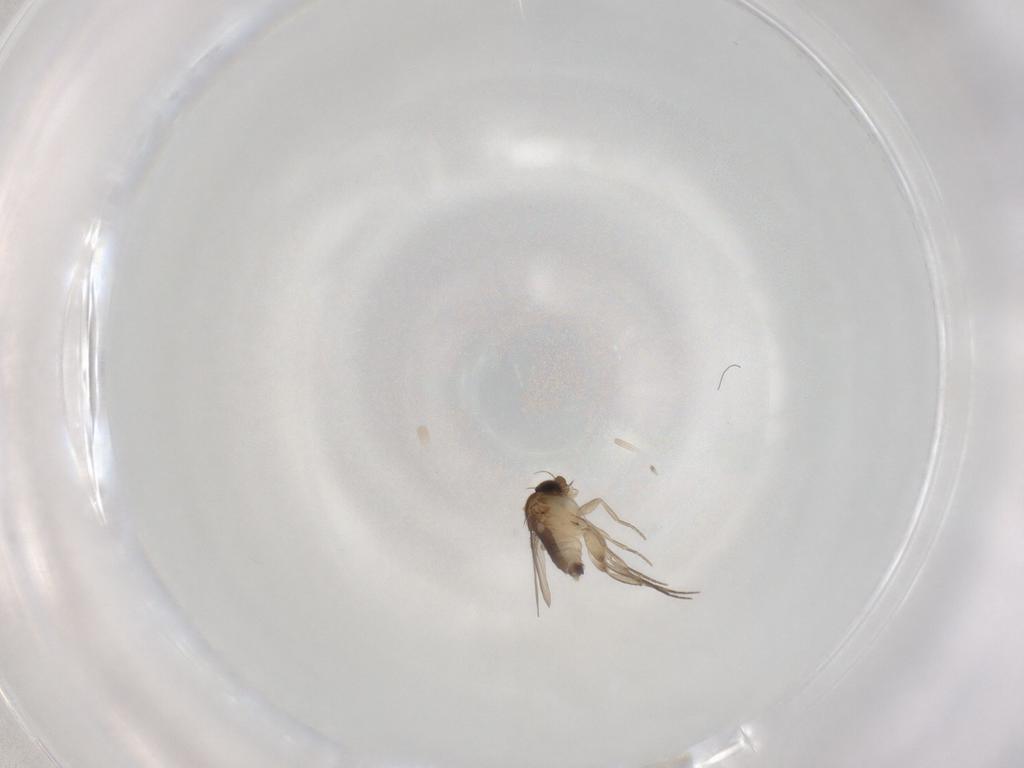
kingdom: Animalia
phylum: Arthropoda
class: Insecta
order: Diptera
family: Phoridae
